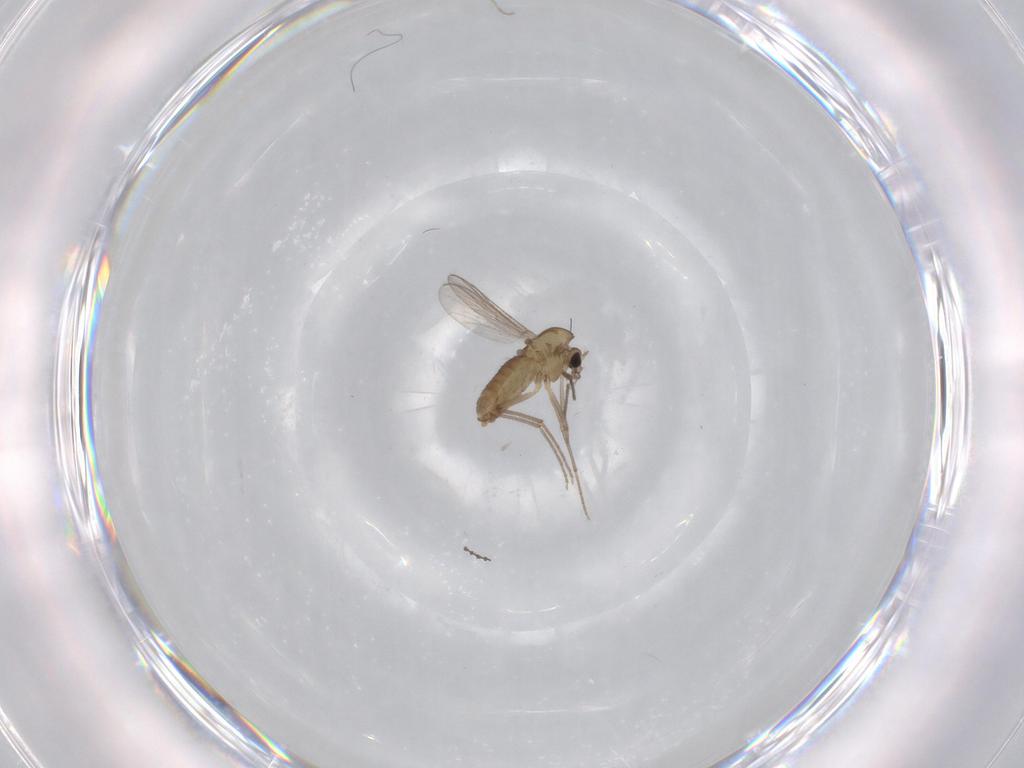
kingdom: Animalia
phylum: Arthropoda
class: Insecta
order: Diptera
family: Chironomidae
